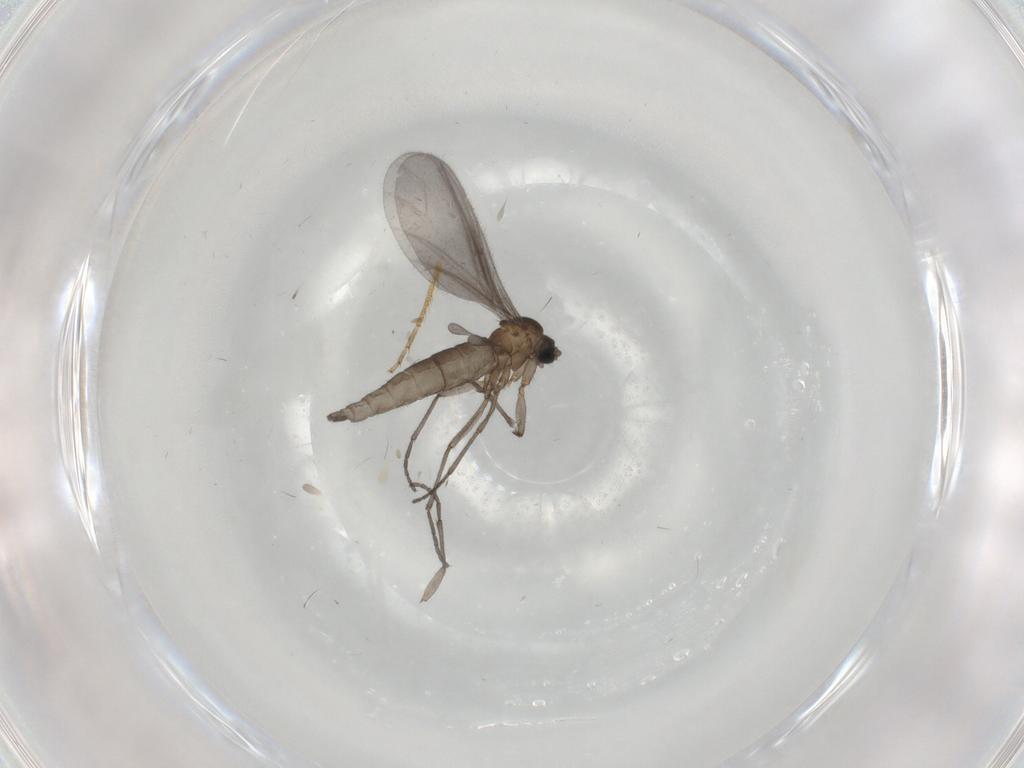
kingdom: Animalia
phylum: Arthropoda
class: Insecta
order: Diptera
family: Sciaridae
